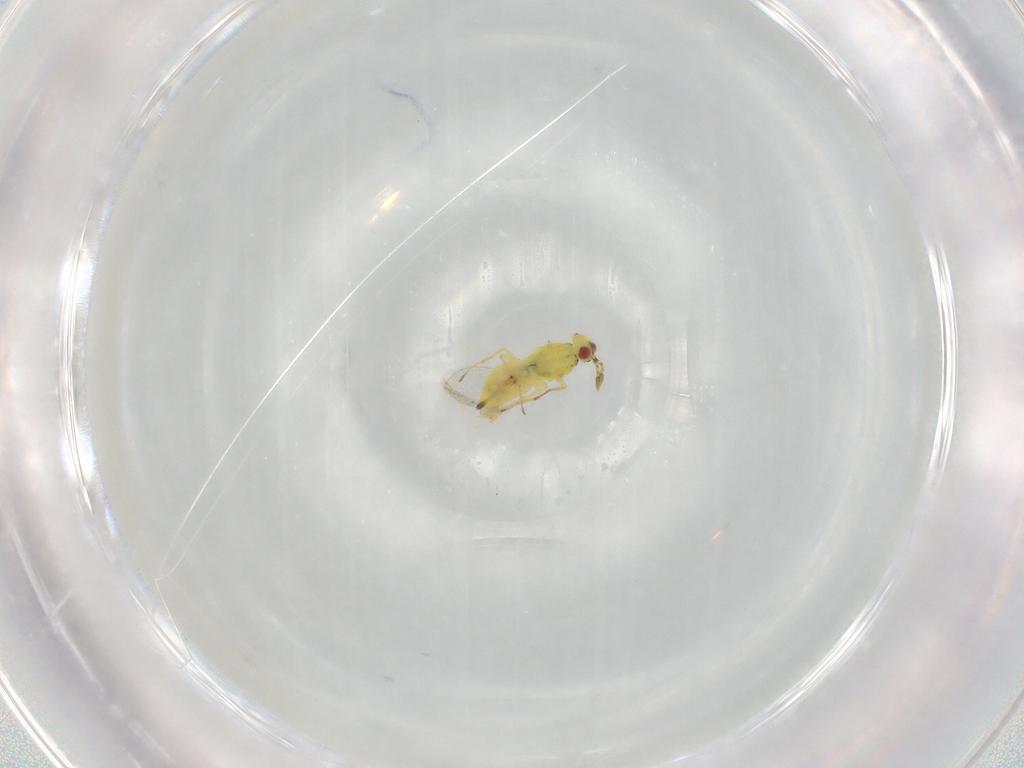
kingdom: Animalia
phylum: Arthropoda
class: Insecta
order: Hymenoptera
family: Eulophidae
